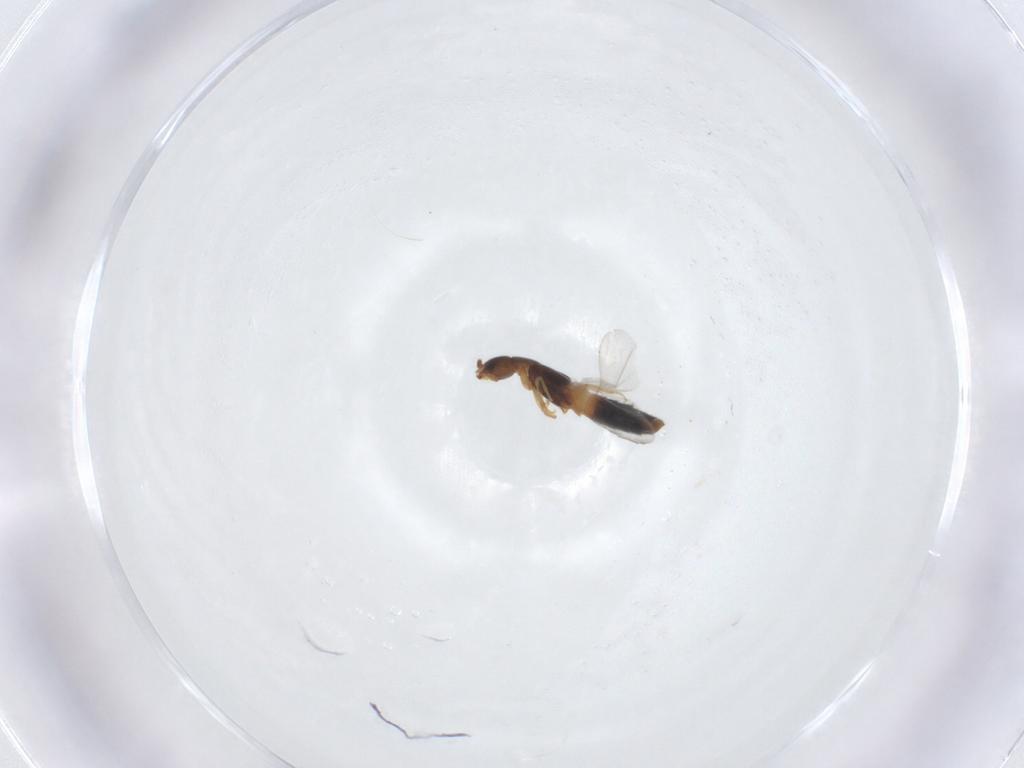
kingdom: Animalia
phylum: Arthropoda
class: Insecta
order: Coleoptera
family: Staphylinidae
